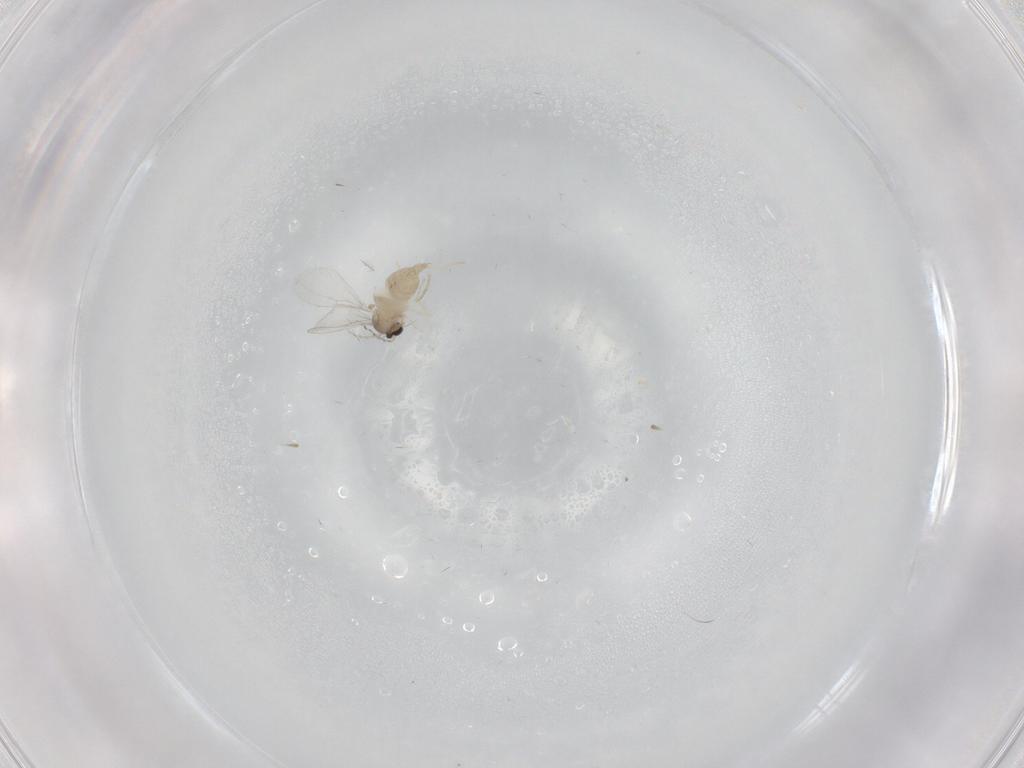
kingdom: Animalia
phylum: Arthropoda
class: Insecta
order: Diptera
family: Cecidomyiidae
